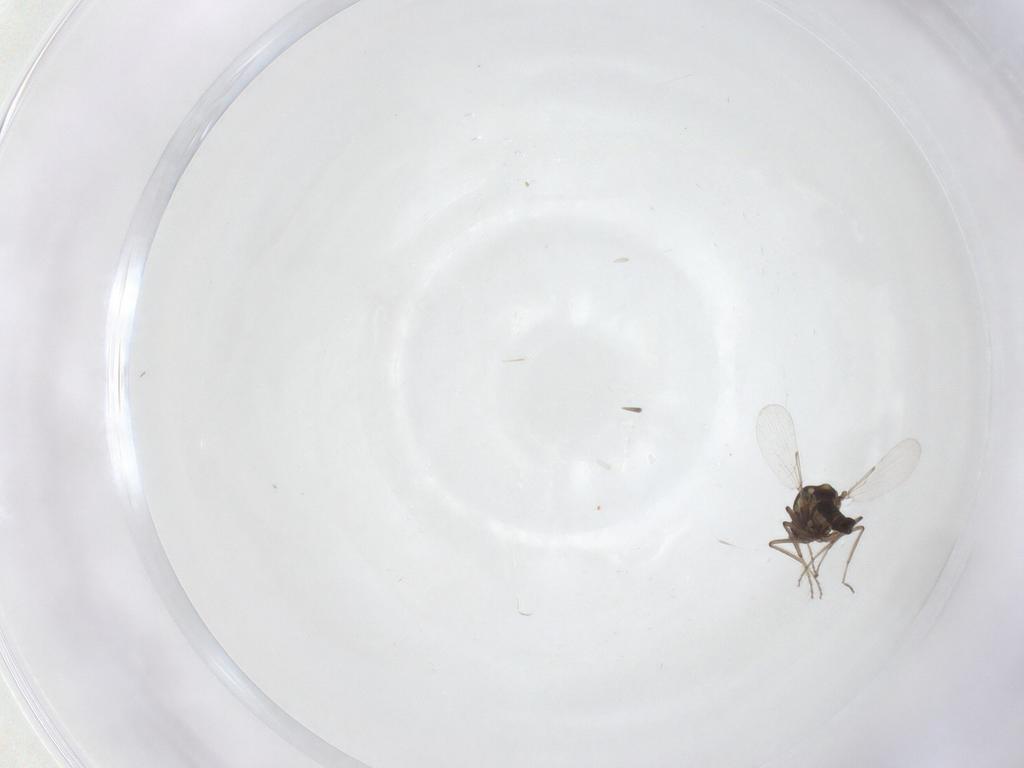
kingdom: Animalia
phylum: Arthropoda
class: Insecta
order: Diptera
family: Ceratopogonidae
